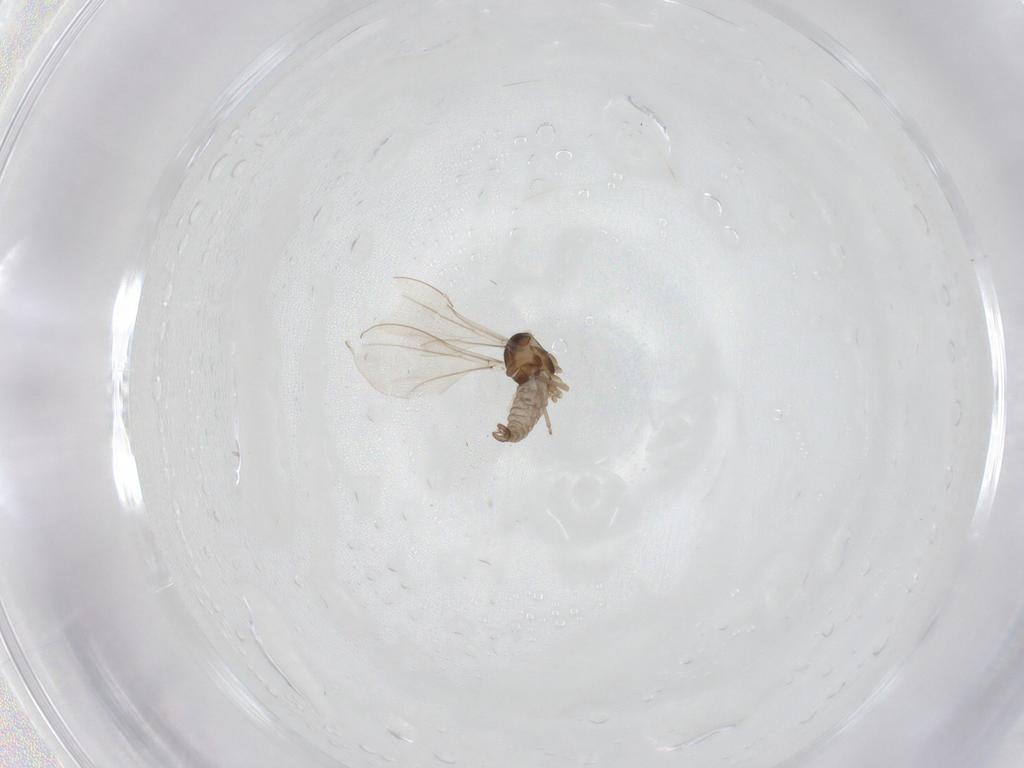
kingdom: Animalia
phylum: Arthropoda
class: Insecta
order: Diptera
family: Cecidomyiidae
